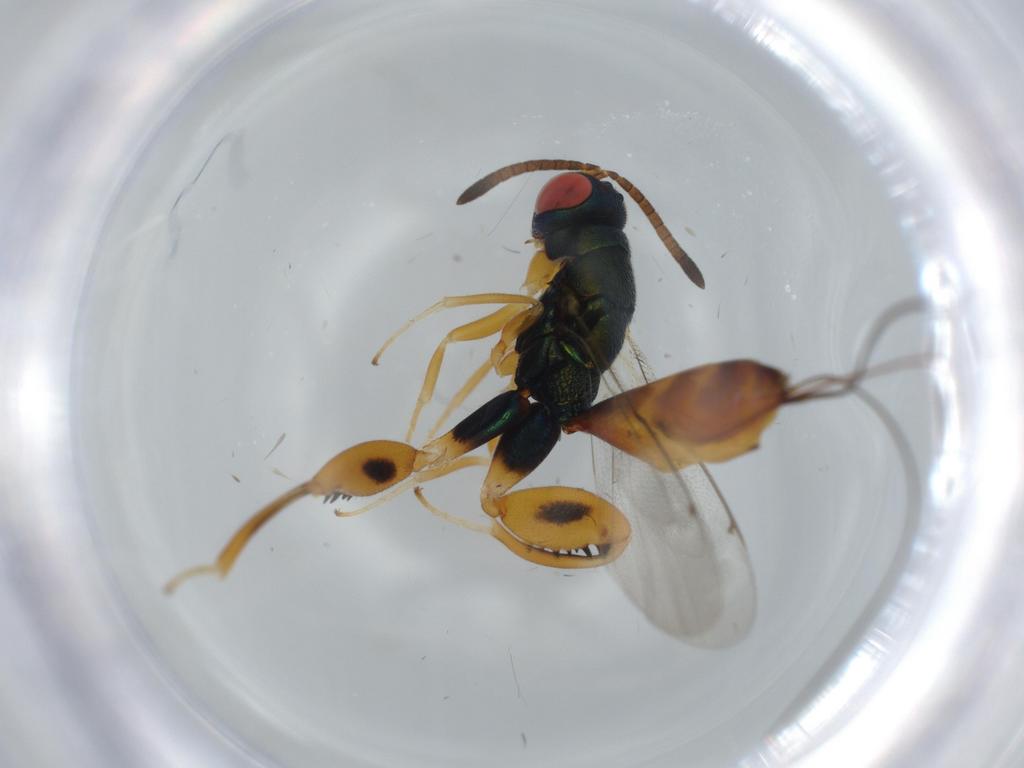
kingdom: Animalia
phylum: Arthropoda
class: Insecta
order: Hymenoptera
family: Torymidae
